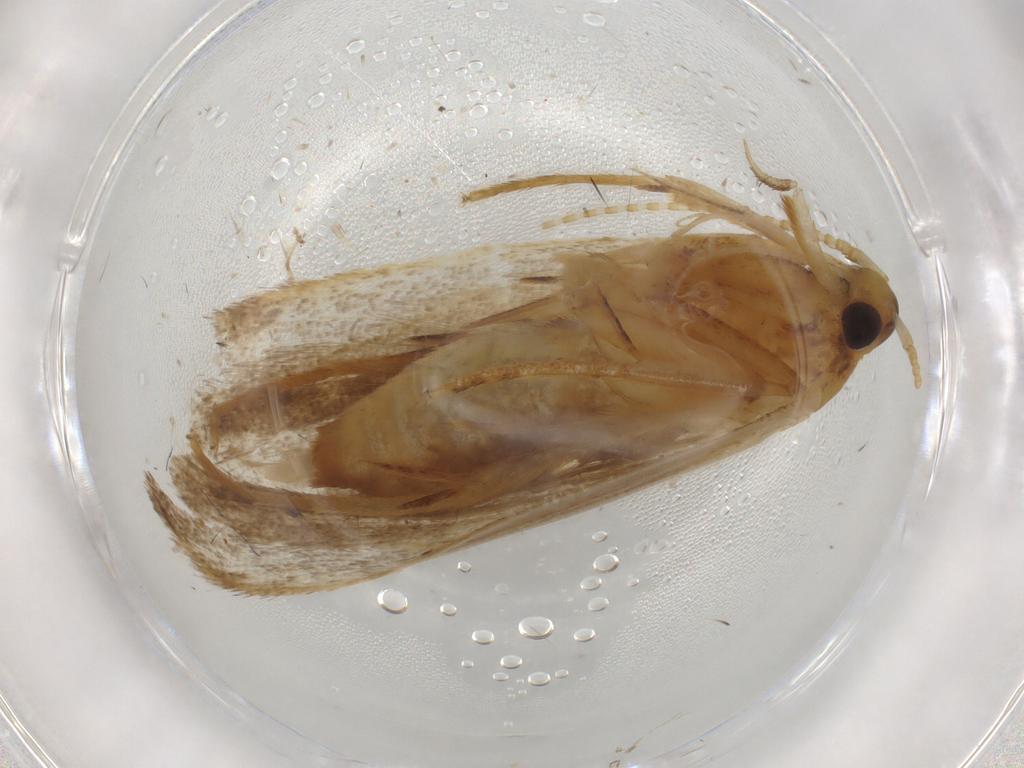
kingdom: Animalia
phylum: Arthropoda
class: Insecta
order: Lepidoptera
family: Lecithoceridae
